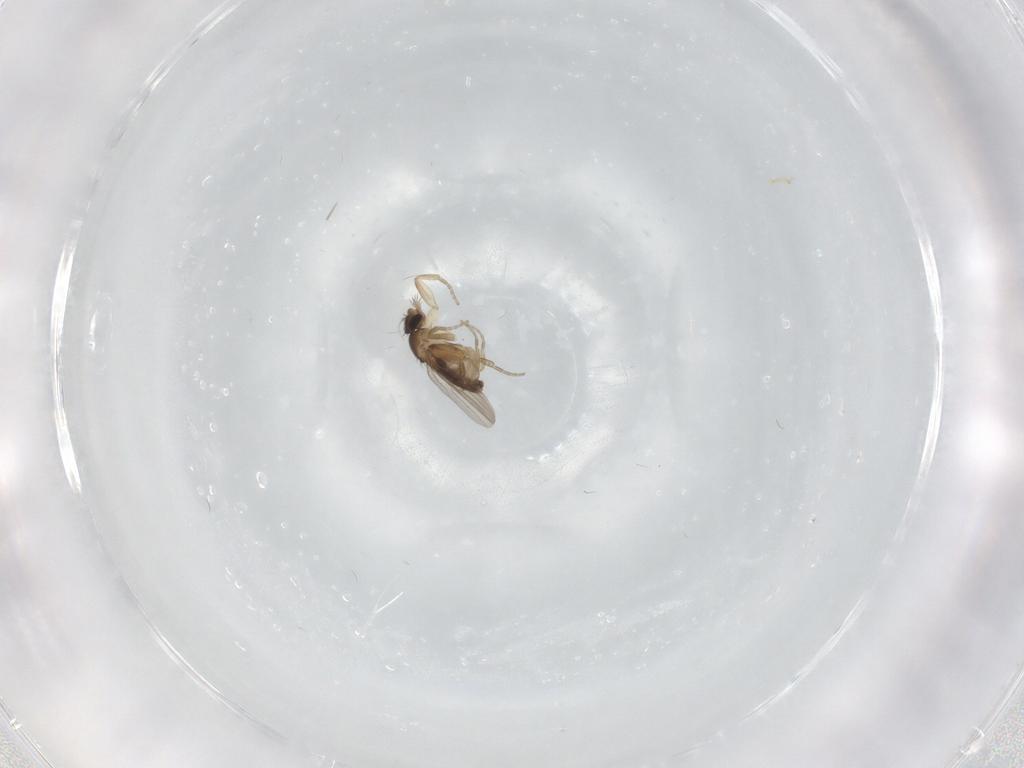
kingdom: Animalia
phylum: Arthropoda
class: Insecta
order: Diptera
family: Phoridae
